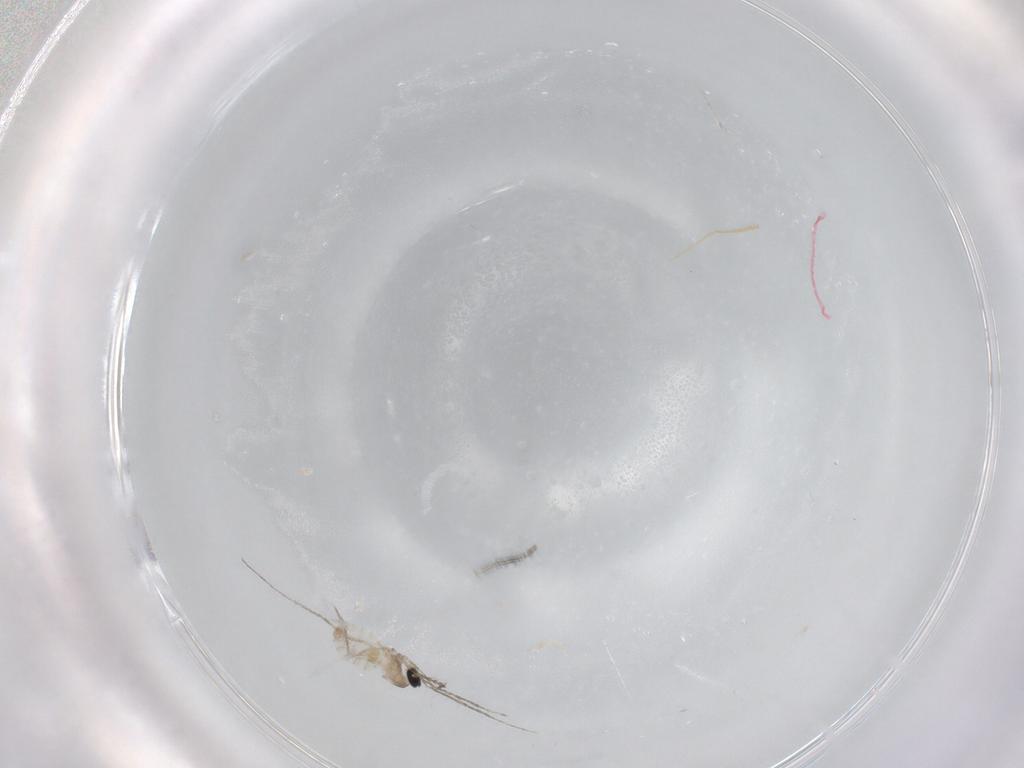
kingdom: Animalia
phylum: Arthropoda
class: Insecta
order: Diptera
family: Cecidomyiidae
